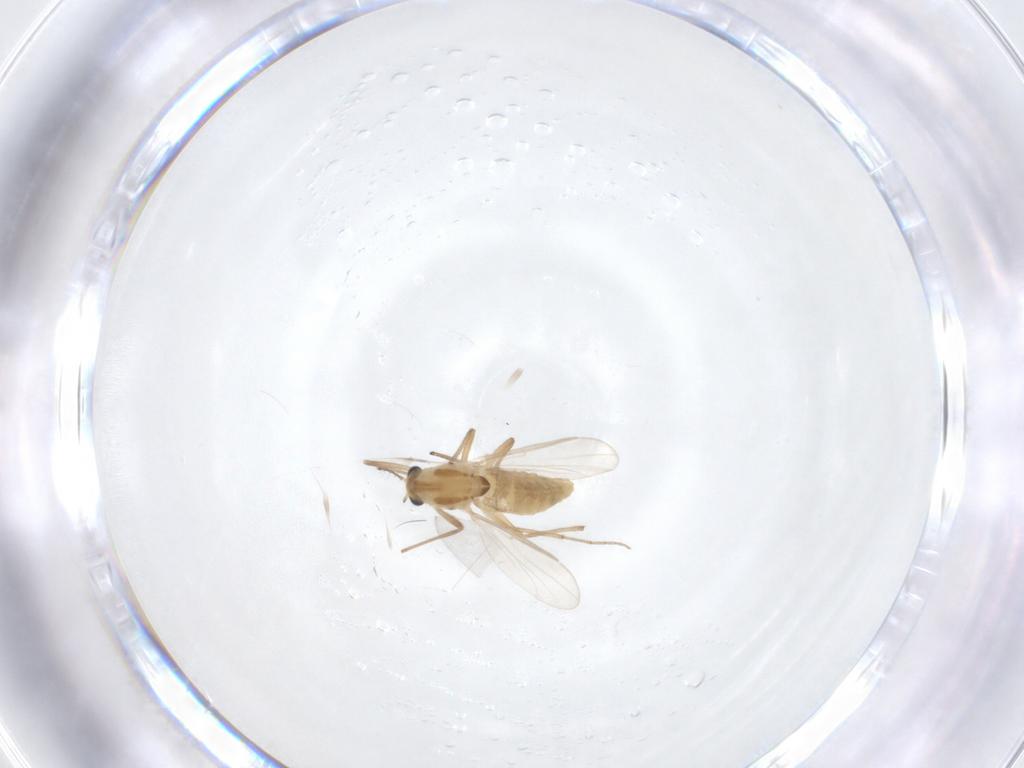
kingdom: Animalia
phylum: Arthropoda
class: Insecta
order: Diptera
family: Chironomidae
